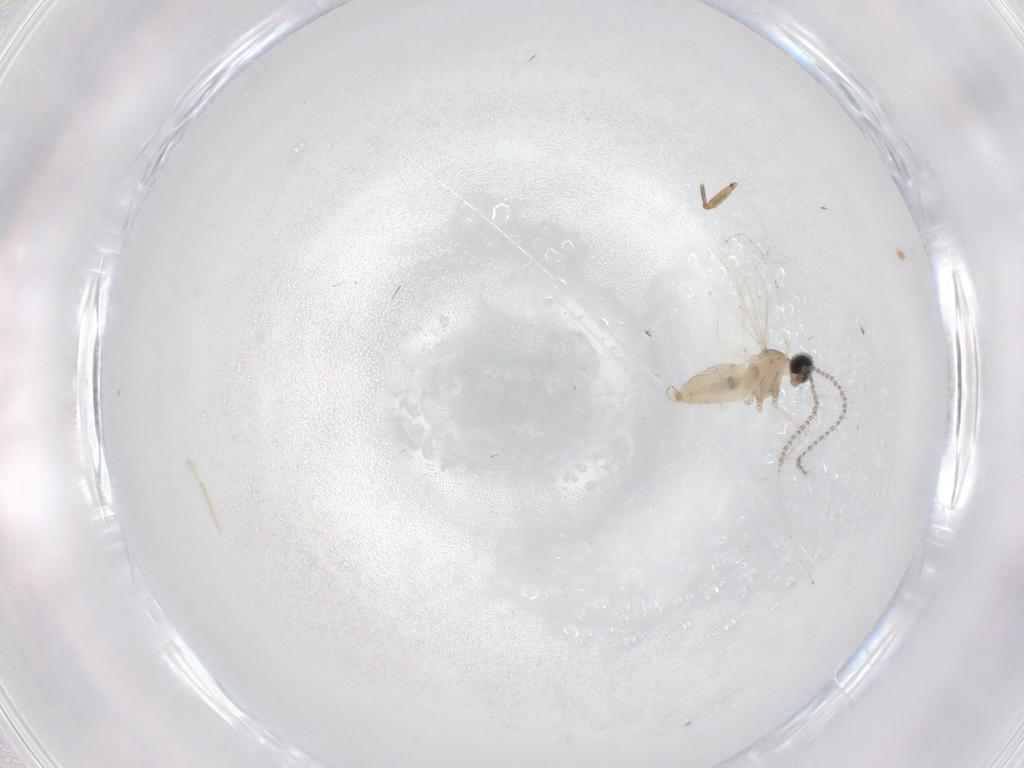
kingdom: Animalia
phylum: Arthropoda
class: Insecta
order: Diptera
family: Cecidomyiidae
